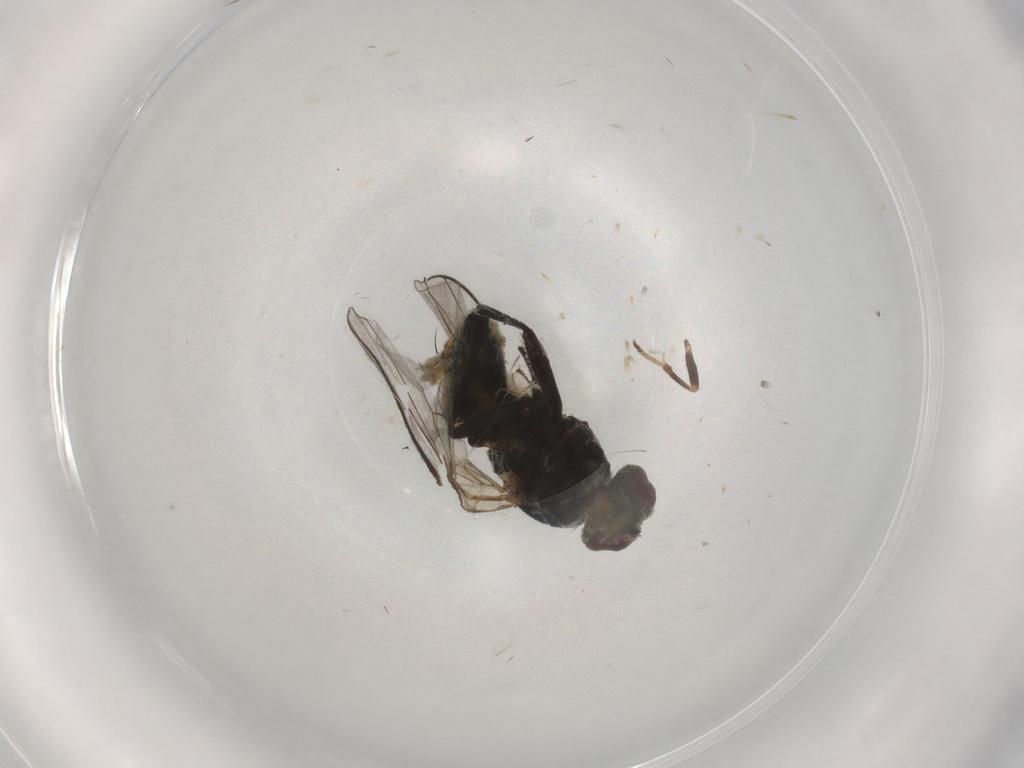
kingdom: Animalia
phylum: Arthropoda
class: Insecta
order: Diptera
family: Agromyzidae
